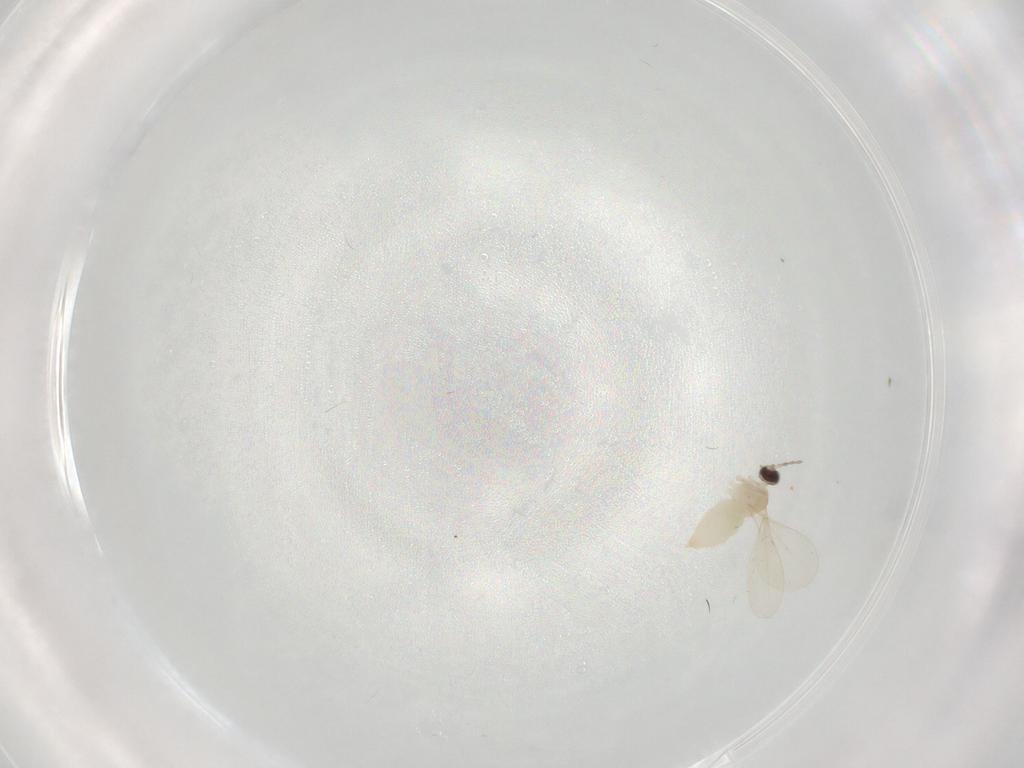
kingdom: Animalia
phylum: Arthropoda
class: Insecta
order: Diptera
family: Cecidomyiidae
